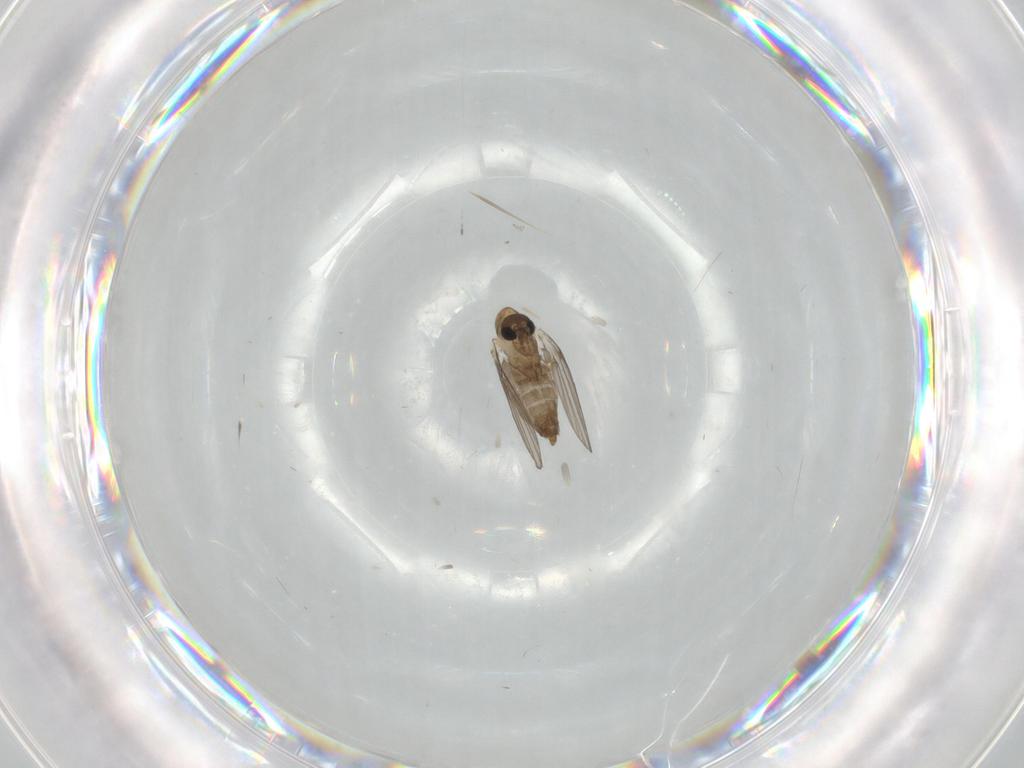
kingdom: Animalia
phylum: Arthropoda
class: Insecta
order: Diptera
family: Psychodidae
